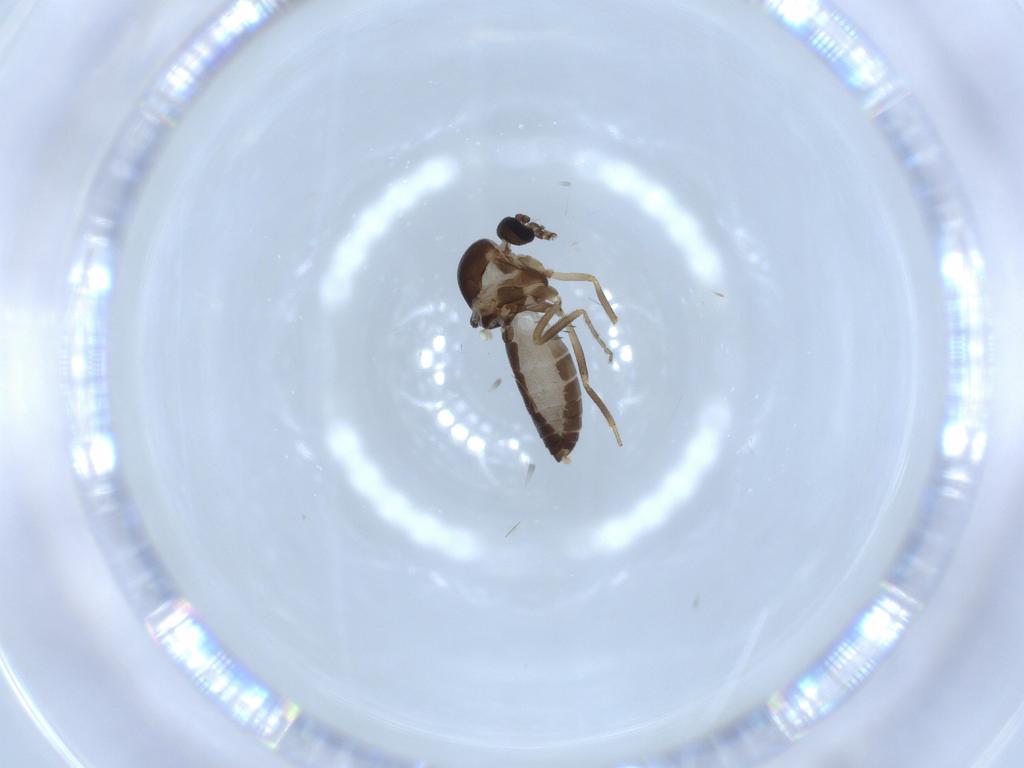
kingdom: Animalia
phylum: Arthropoda
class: Insecta
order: Diptera
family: Ceratopogonidae
